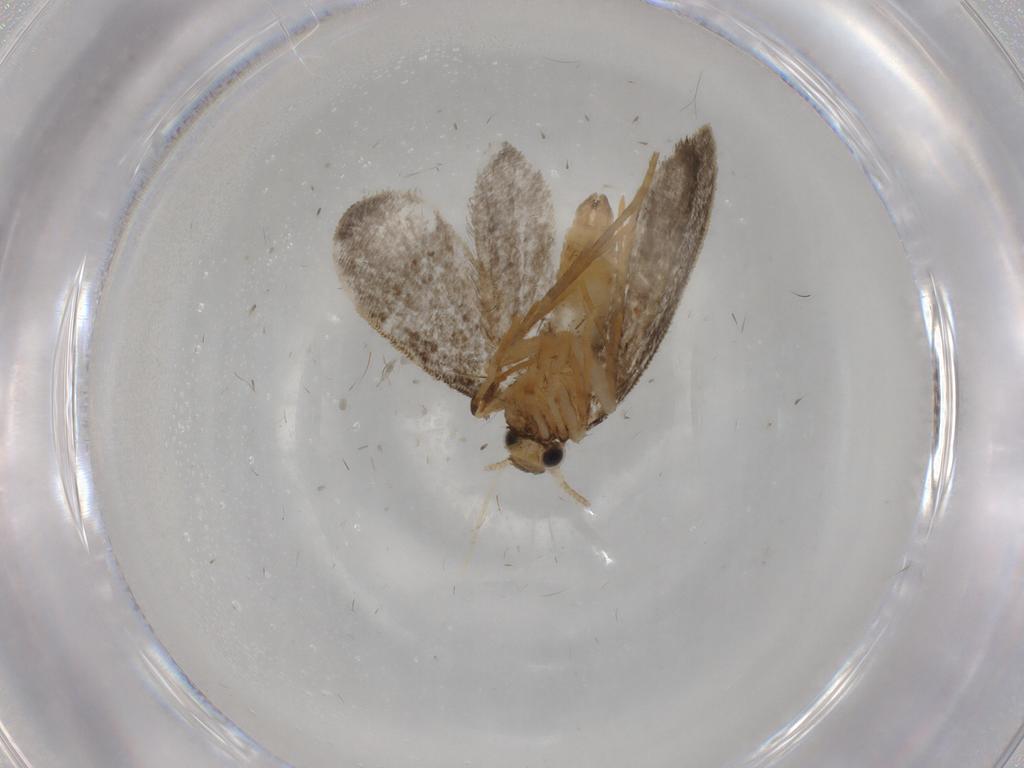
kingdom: Animalia
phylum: Arthropoda
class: Insecta
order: Lepidoptera
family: Psychidae
